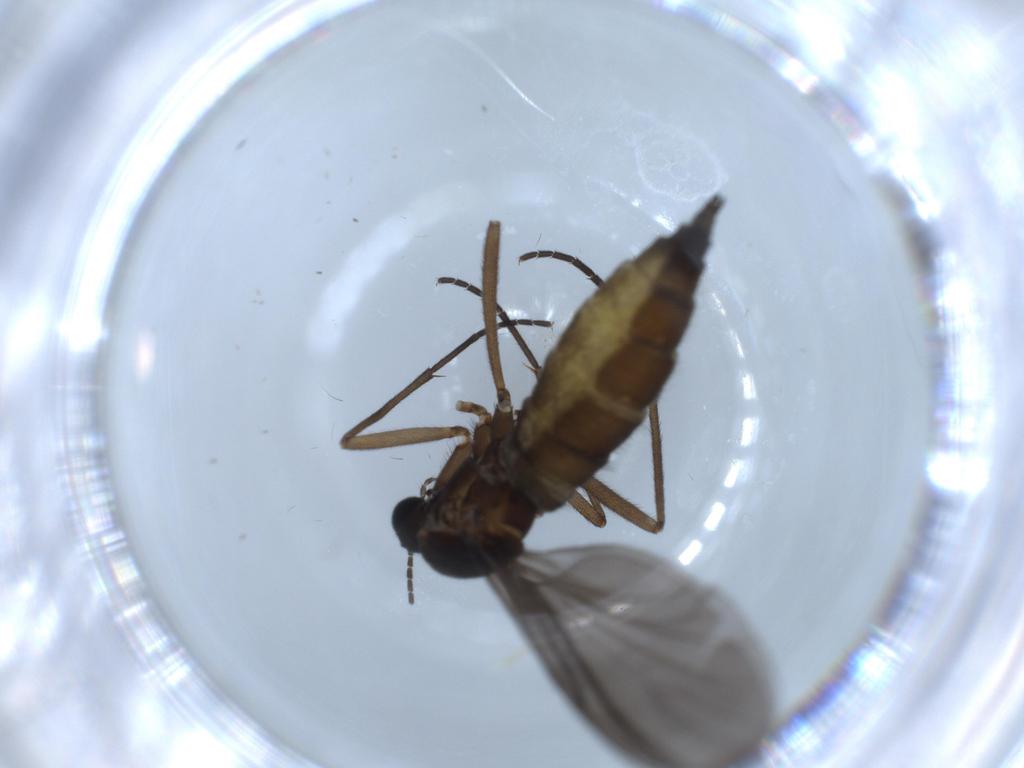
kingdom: Animalia
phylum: Arthropoda
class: Insecta
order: Diptera
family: Sciaridae
